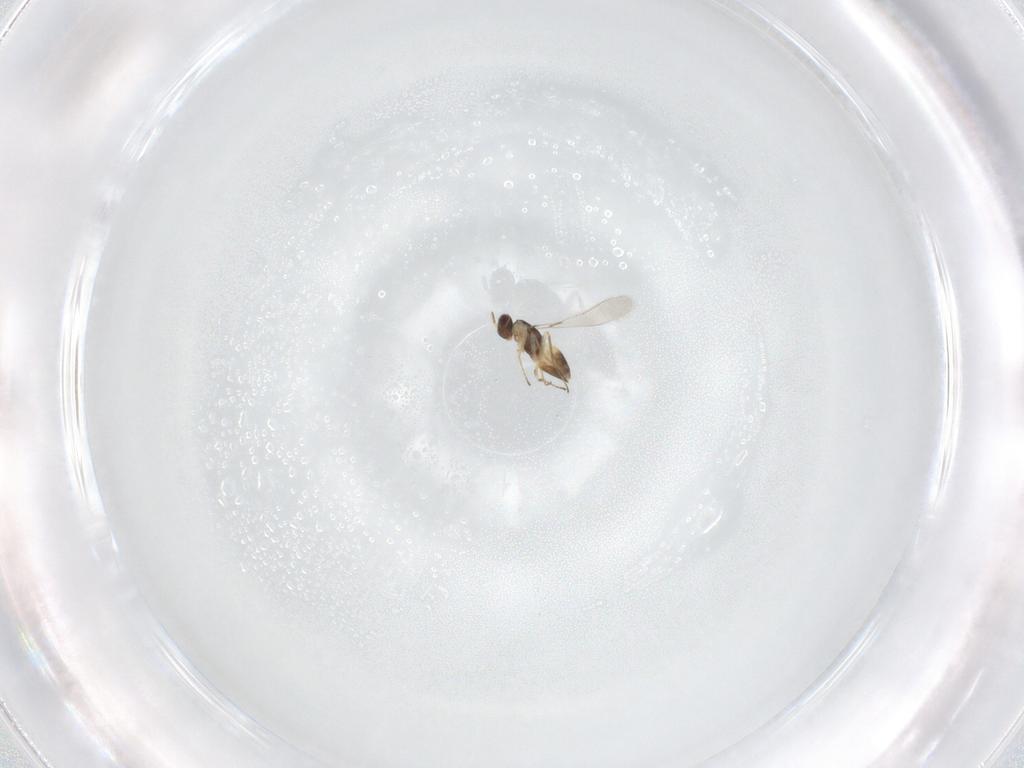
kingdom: Animalia
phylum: Arthropoda
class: Insecta
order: Hymenoptera
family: Mymaridae
